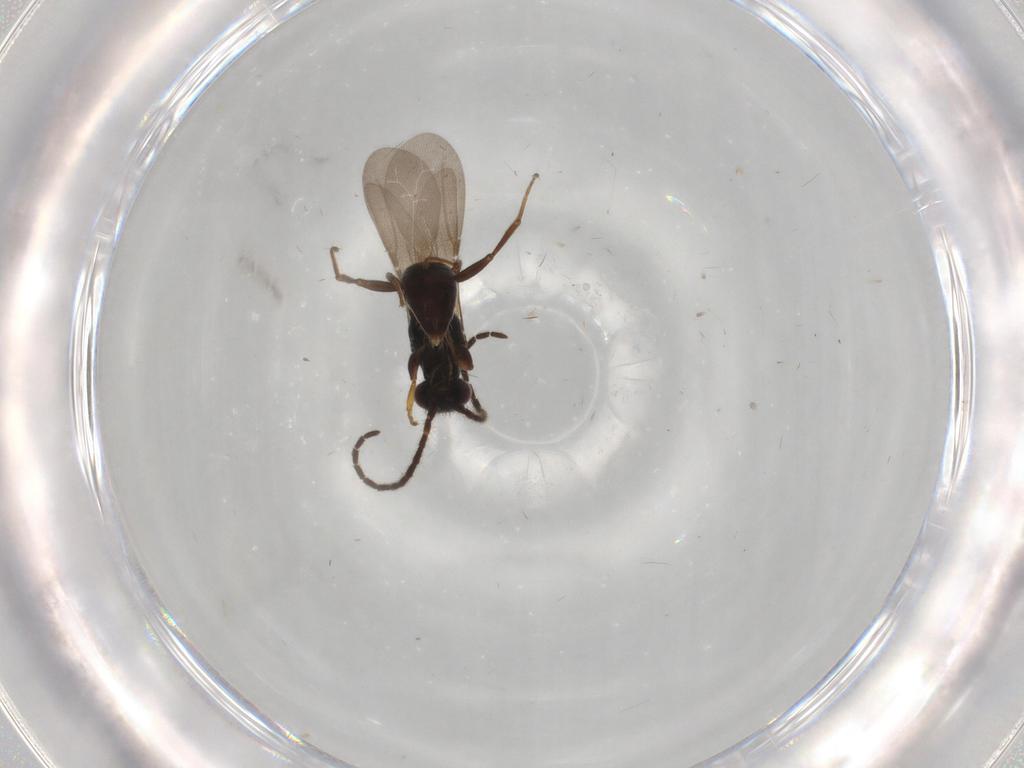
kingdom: Animalia
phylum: Arthropoda
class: Insecta
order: Hymenoptera
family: Bethylidae
